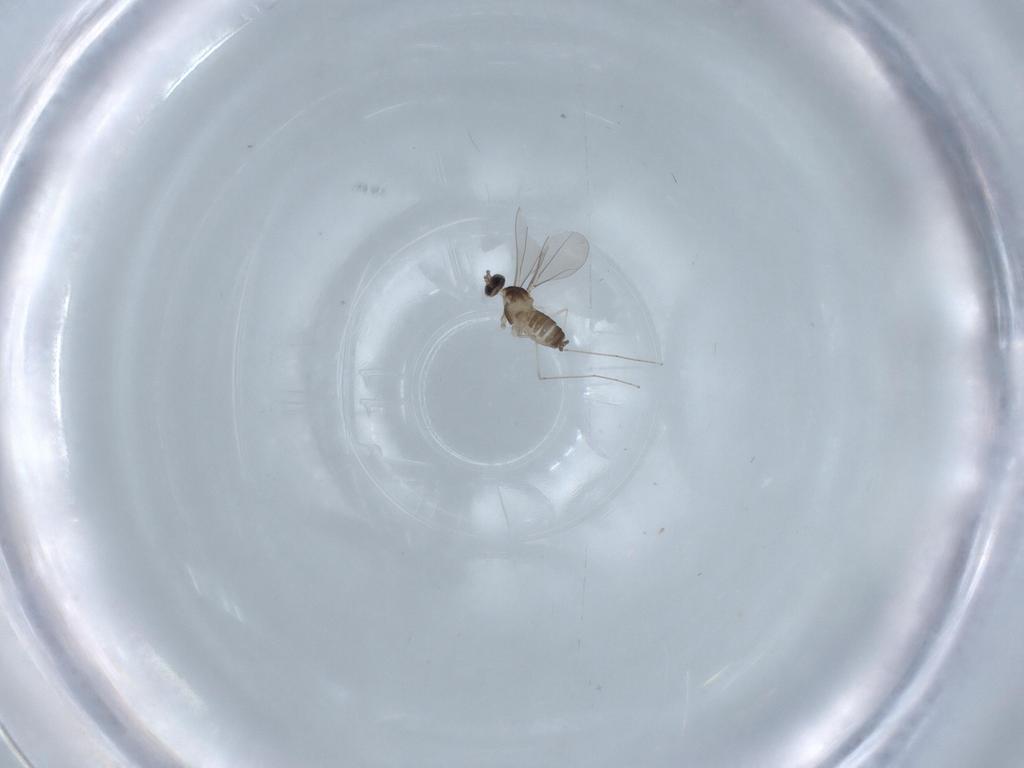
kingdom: Animalia
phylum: Arthropoda
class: Insecta
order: Diptera
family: Cecidomyiidae
